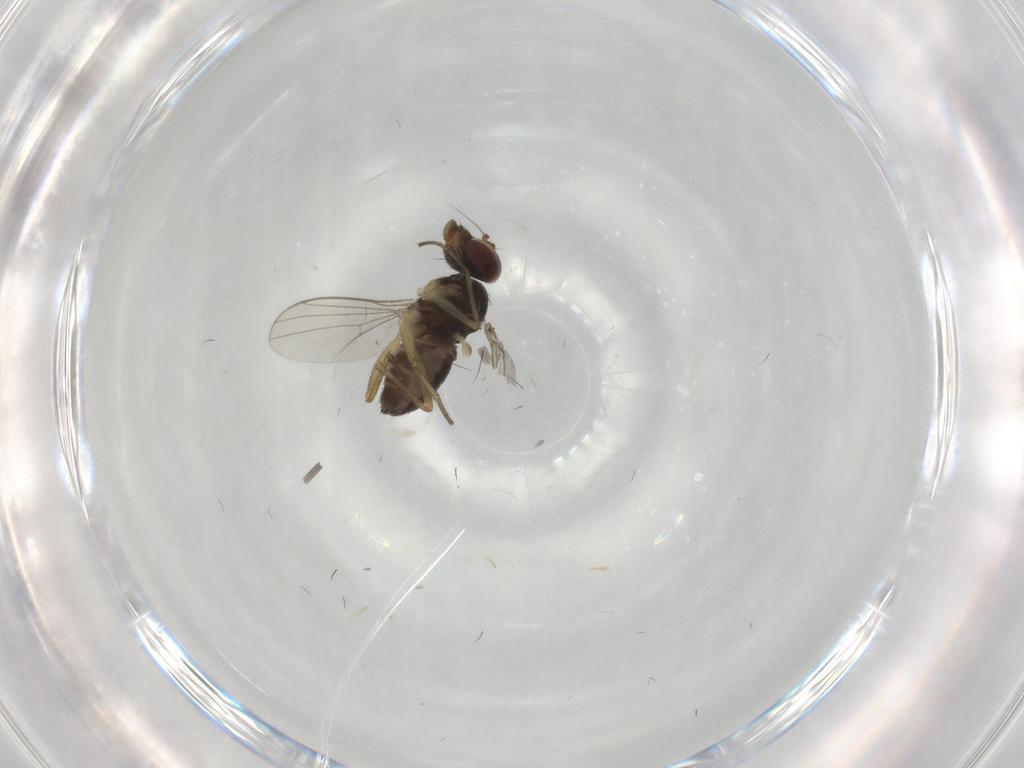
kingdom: Animalia
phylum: Arthropoda
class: Insecta
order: Diptera
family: Dolichopodidae
